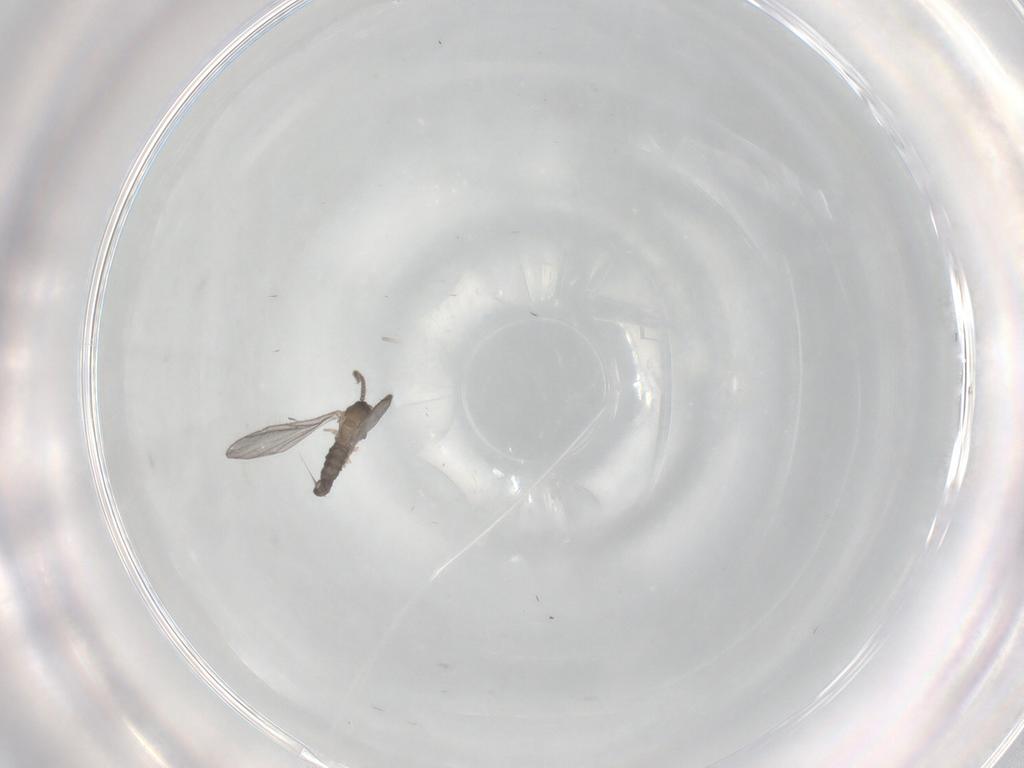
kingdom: Animalia
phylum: Arthropoda
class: Insecta
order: Diptera
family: Sciaridae
